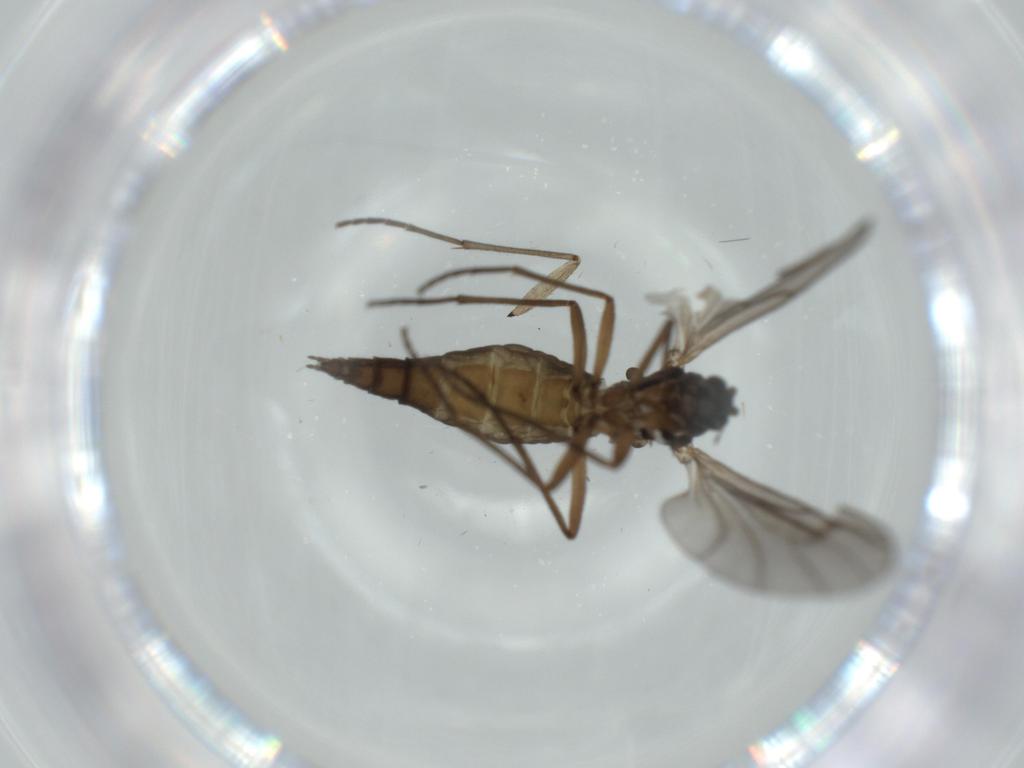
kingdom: Animalia
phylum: Arthropoda
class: Insecta
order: Diptera
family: Sciaridae
